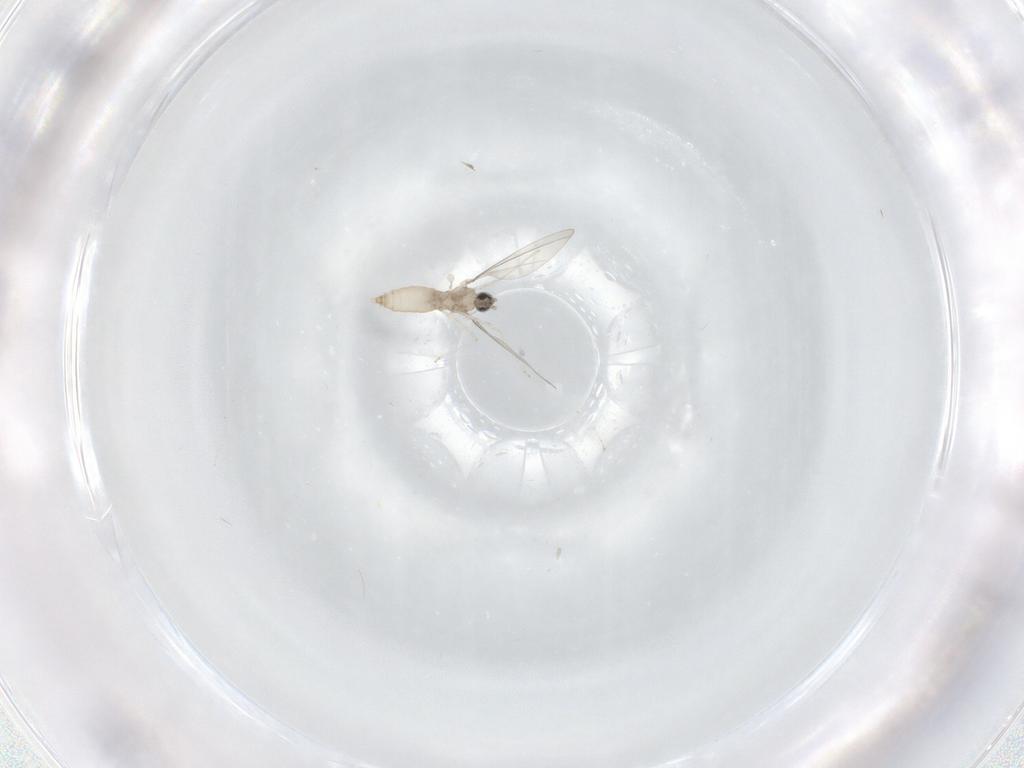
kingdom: Animalia
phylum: Arthropoda
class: Insecta
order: Diptera
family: Cecidomyiidae
